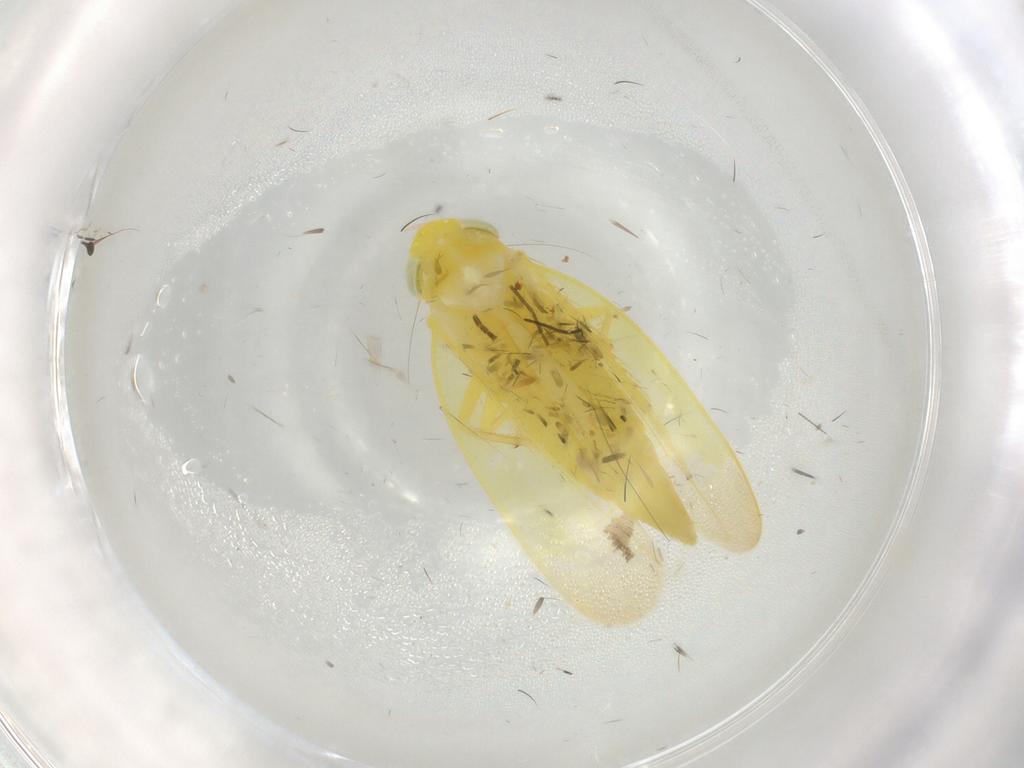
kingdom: Animalia
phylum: Arthropoda
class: Insecta
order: Hemiptera
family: Cicadellidae
